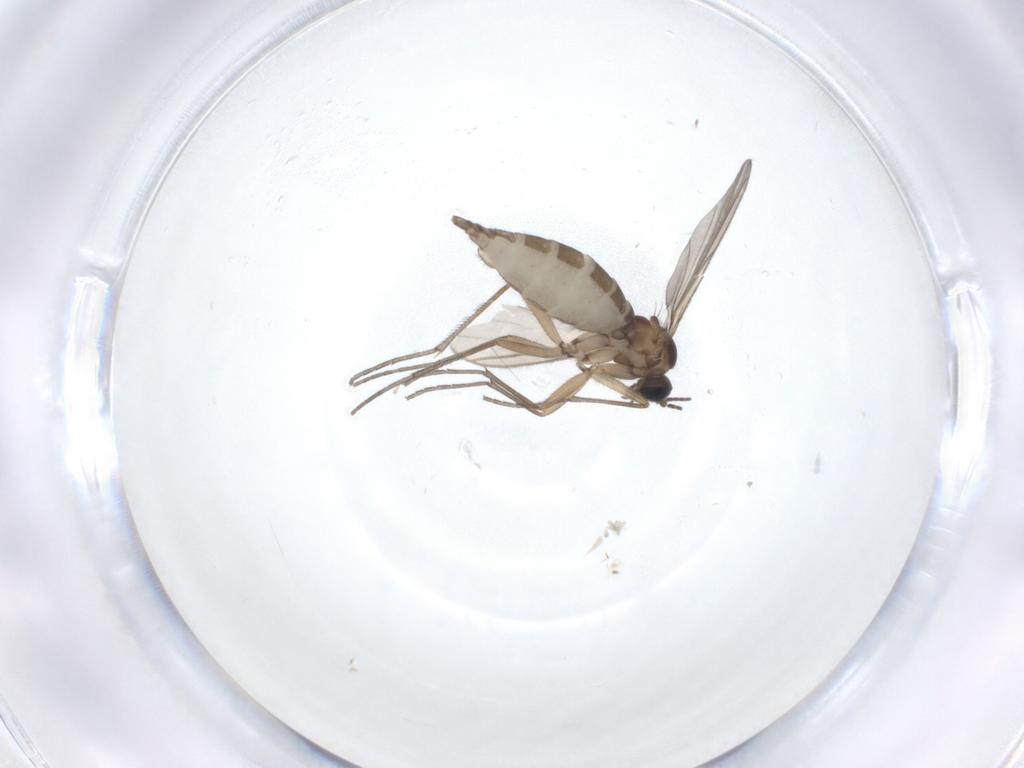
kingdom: Animalia
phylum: Arthropoda
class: Insecta
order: Diptera
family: Sciaridae
